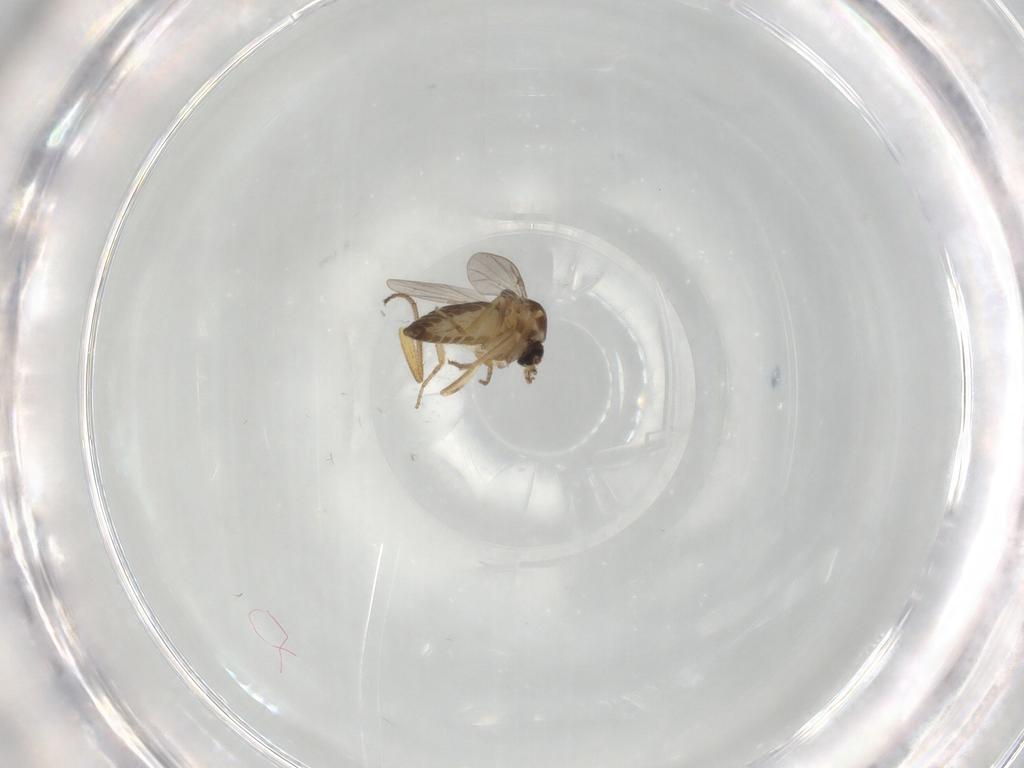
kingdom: Animalia
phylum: Arthropoda
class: Insecta
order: Diptera
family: Ceratopogonidae
